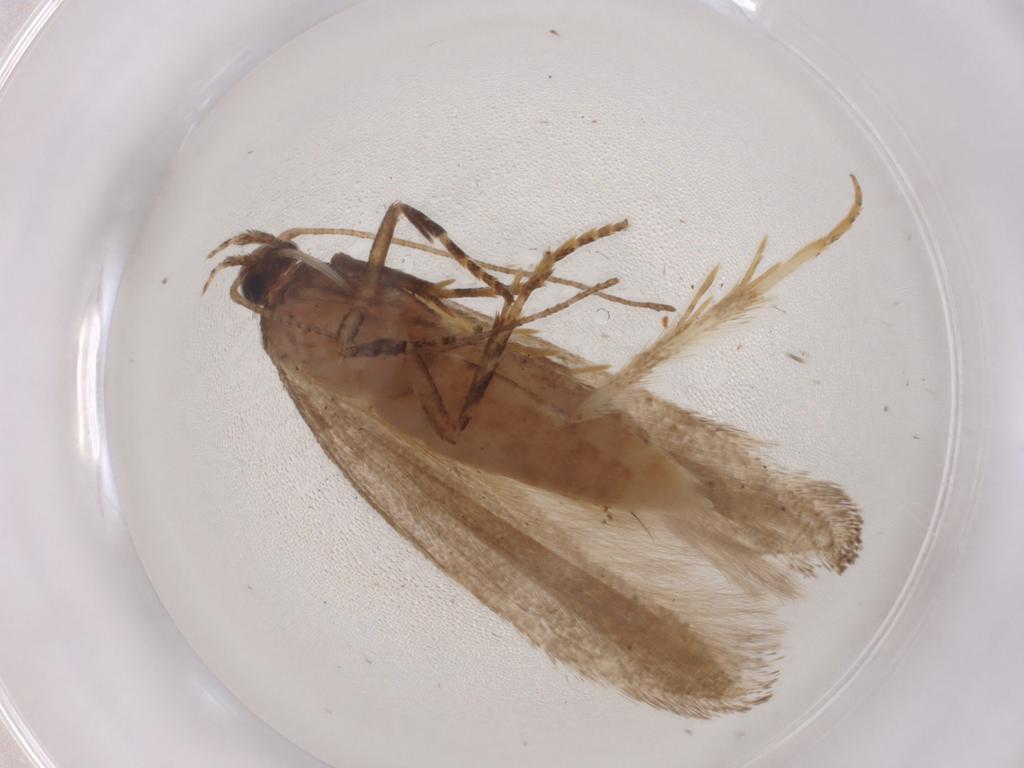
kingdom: Animalia
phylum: Arthropoda
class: Insecta
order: Lepidoptera
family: Gelechiidae
